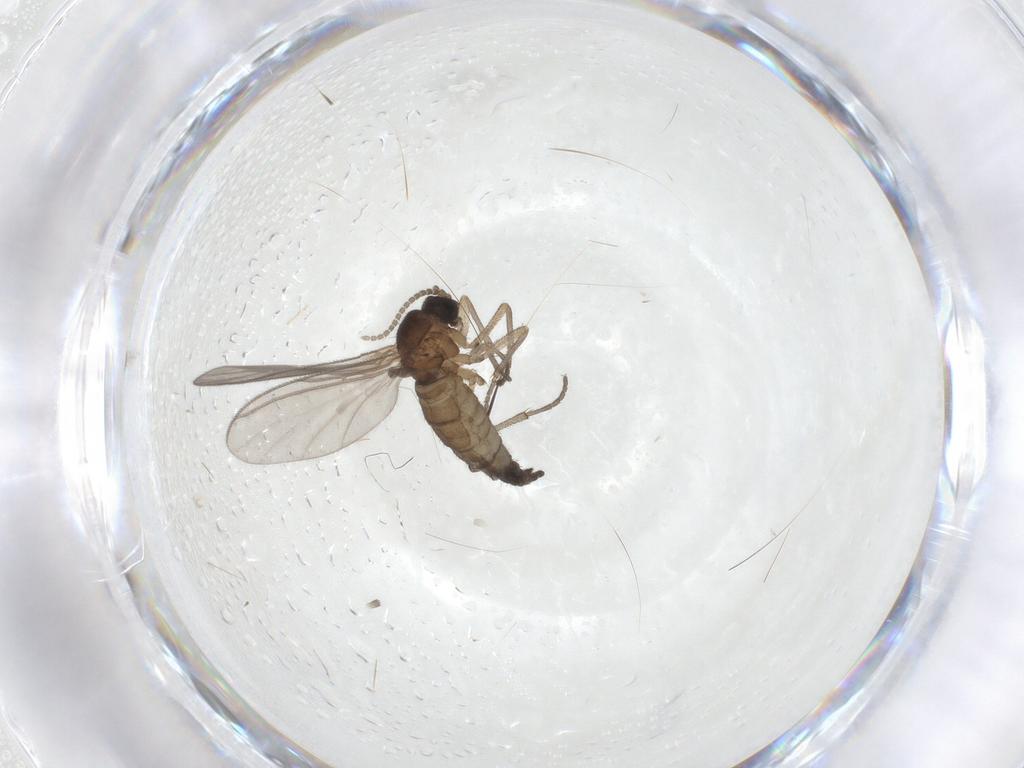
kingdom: Animalia
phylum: Arthropoda
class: Insecta
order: Diptera
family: Sciaridae
